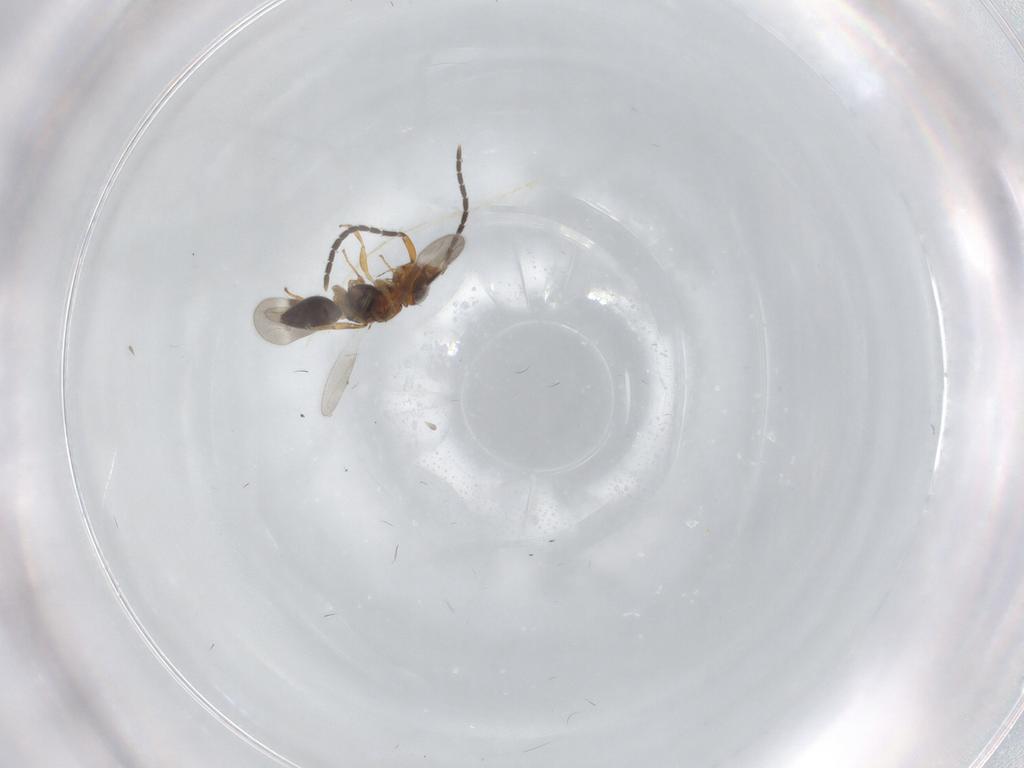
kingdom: Animalia
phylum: Arthropoda
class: Insecta
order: Hymenoptera
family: Megaspilidae
